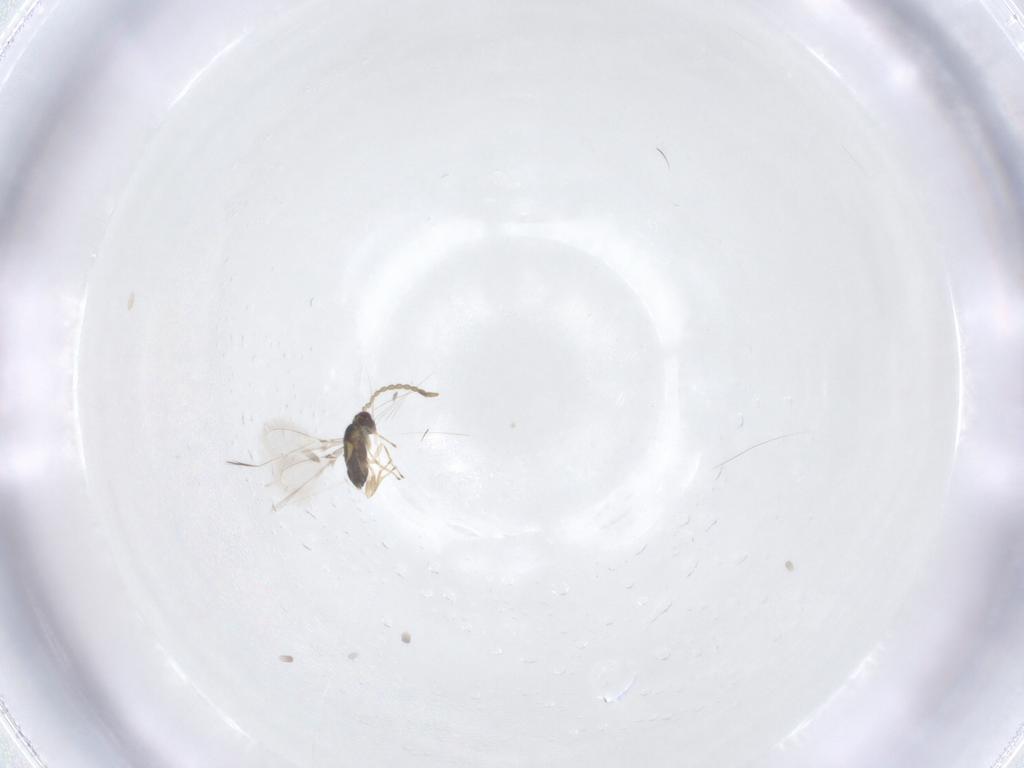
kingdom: Animalia
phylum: Arthropoda
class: Insecta
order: Hymenoptera
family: Mymaridae
